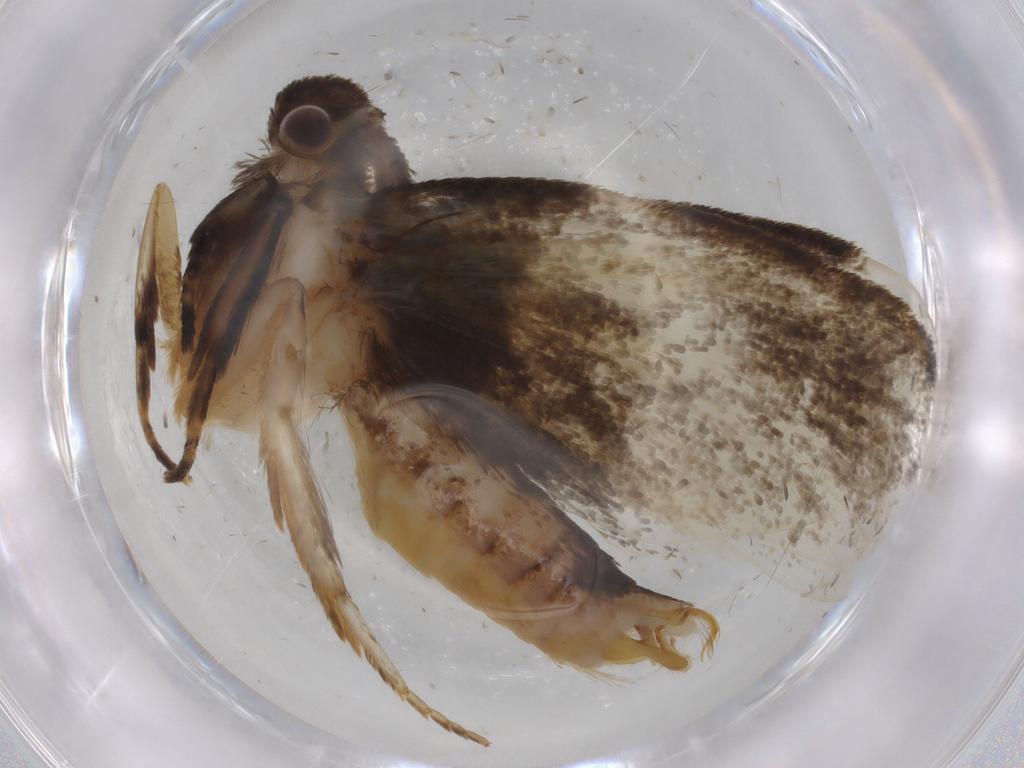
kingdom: Animalia
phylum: Arthropoda
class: Insecta
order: Lepidoptera
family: Tineidae
